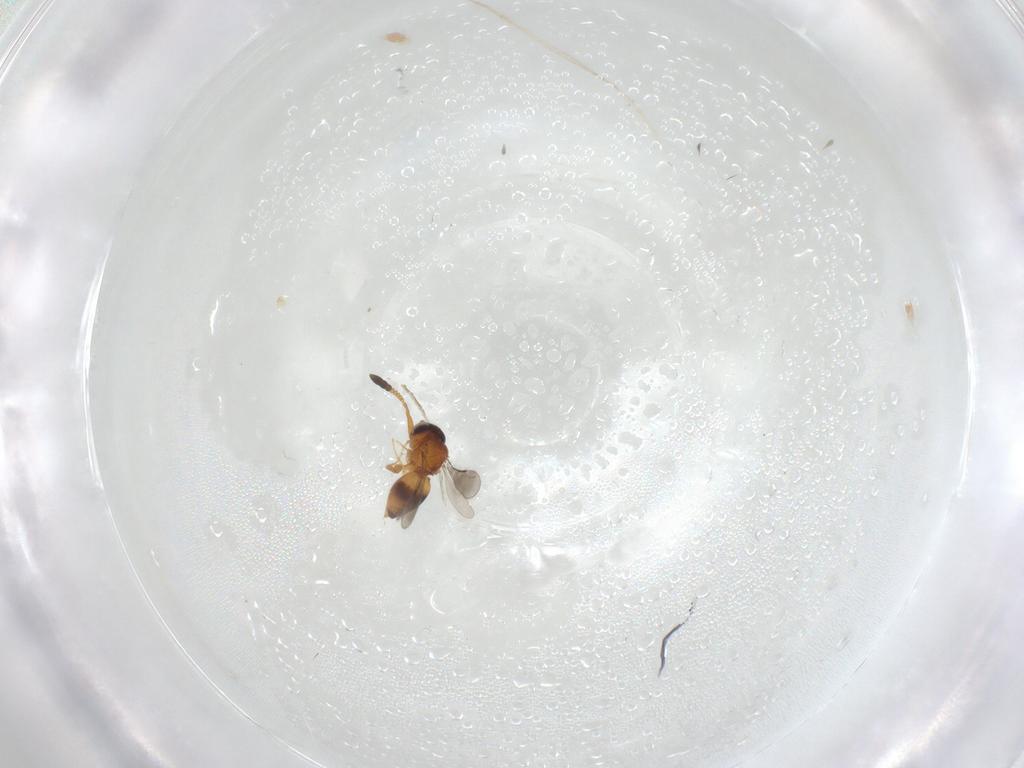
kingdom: Animalia
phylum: Arthropoda
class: Insecta
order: Hymenoptera
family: Ceraphronidae
